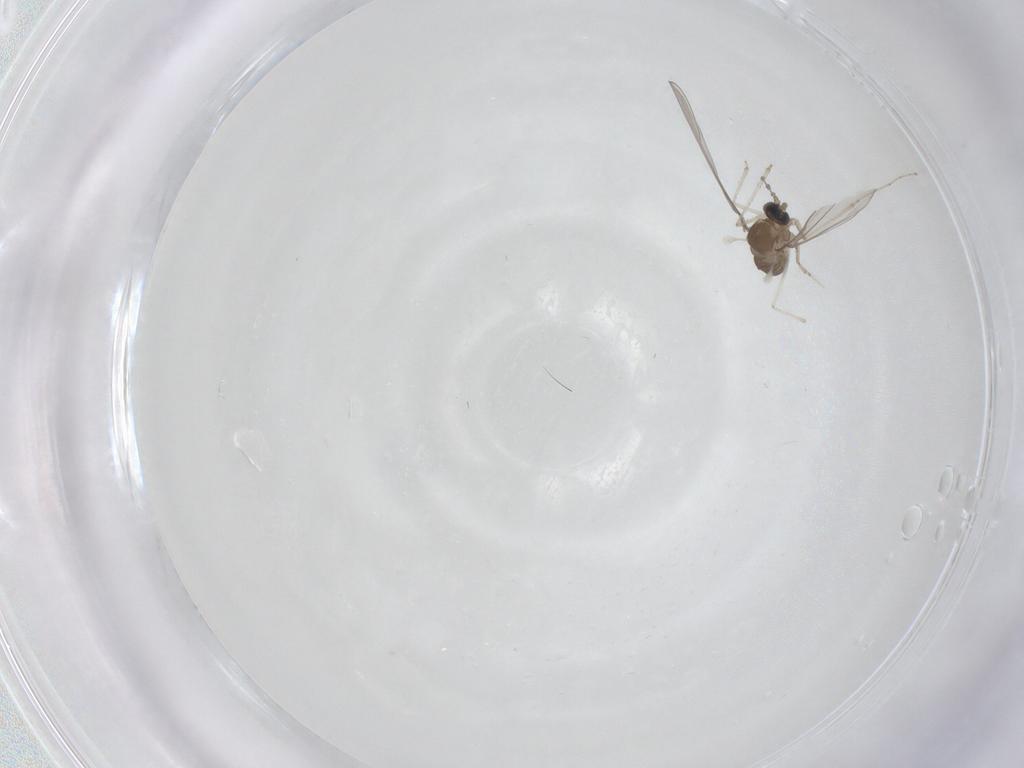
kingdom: Animalia
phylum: Arthropoda
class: Insecta
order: Diptera
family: Cecidomyiidae
